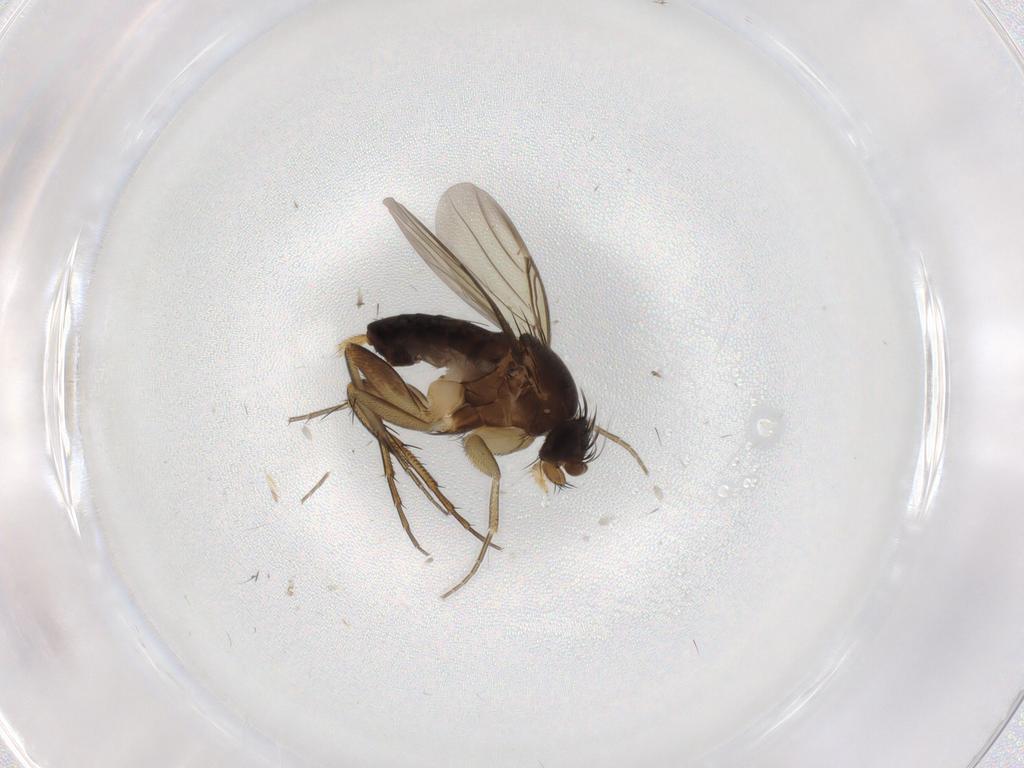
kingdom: Animalia
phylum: Arthropoda
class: Insecta
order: Diptera
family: Phoridae
